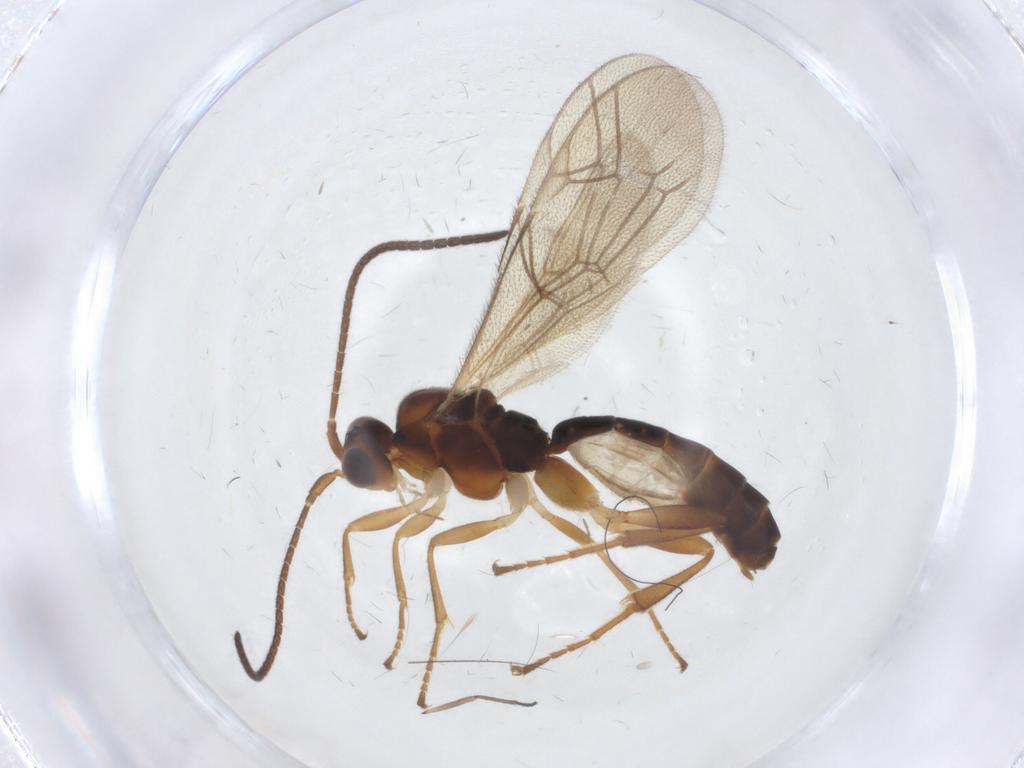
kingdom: Animalia
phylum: Arthropoda
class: Insecta
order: Hymenoptera
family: Ichneumonidae
